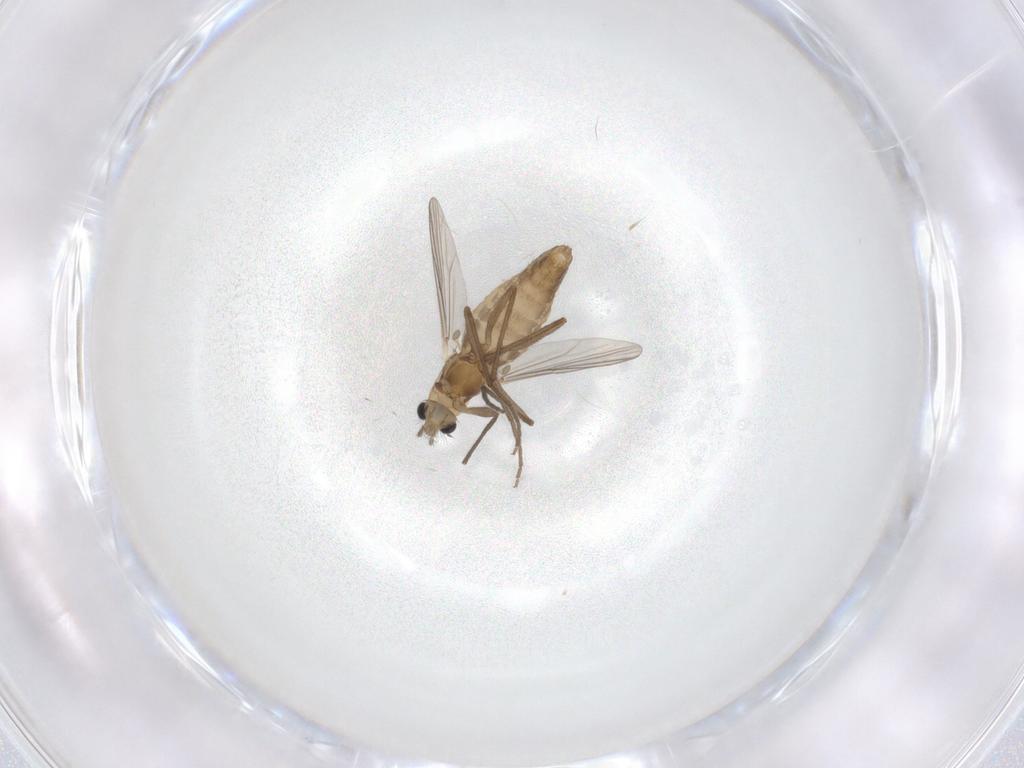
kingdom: Animalia
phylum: Arthropoda
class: Insecta
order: Diptera
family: Chironomidae
